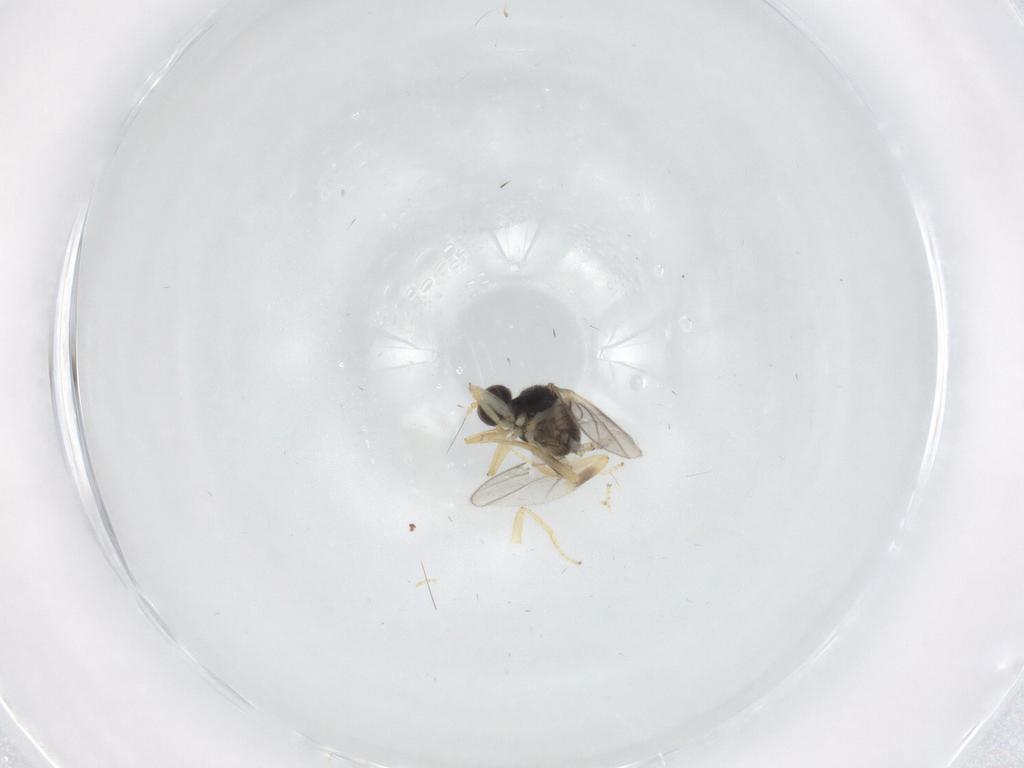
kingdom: Animalia
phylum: Arthropoda
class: Insecta
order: Diptera
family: Hybotidae
